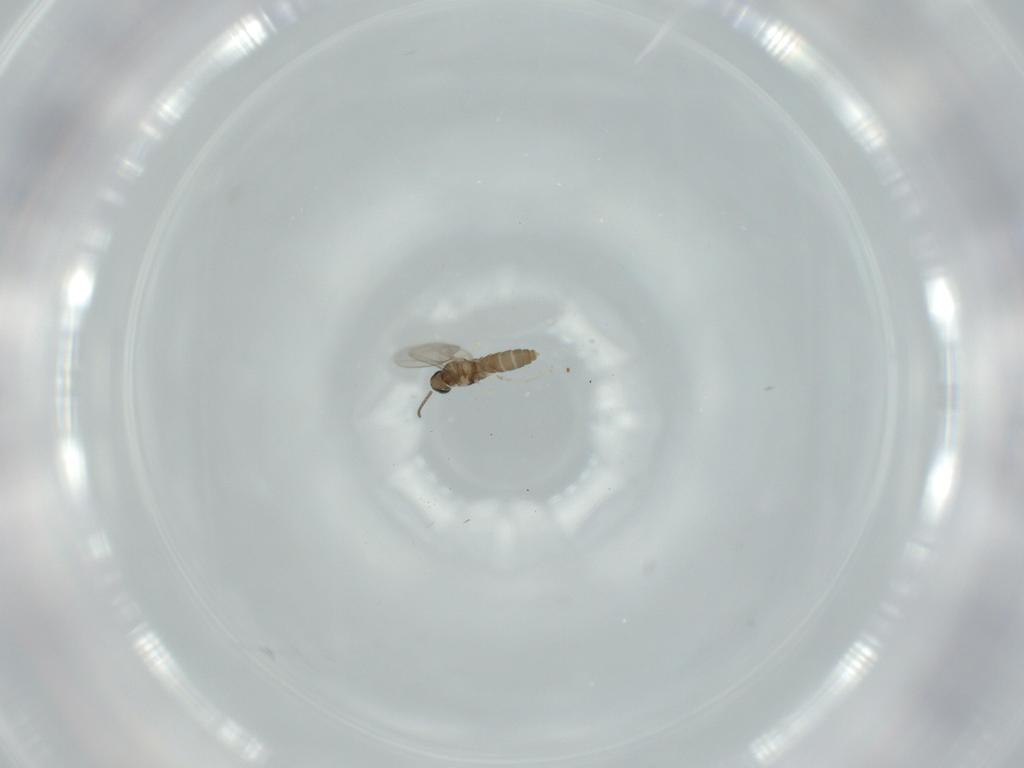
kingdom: Animalia
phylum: Arthropoda
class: Insecta
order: Diptera
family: Cecidomyiidae
